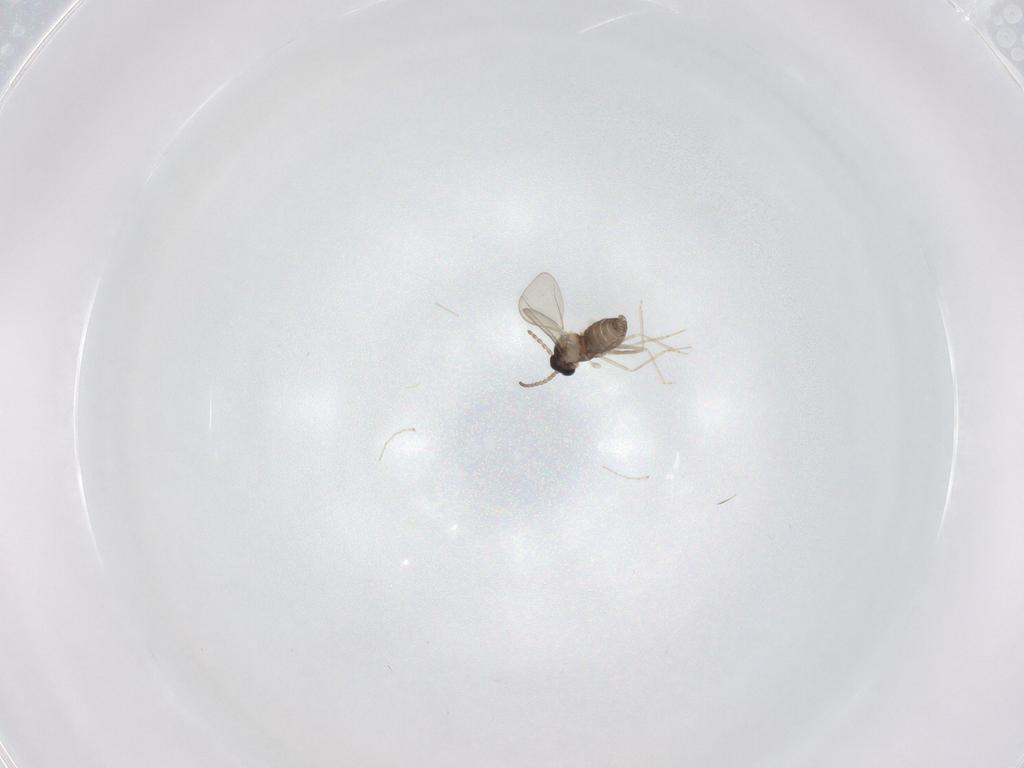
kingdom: Animalia
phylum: Arthropoda
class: Insecta
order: Diptera
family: Cecidomyiidae
